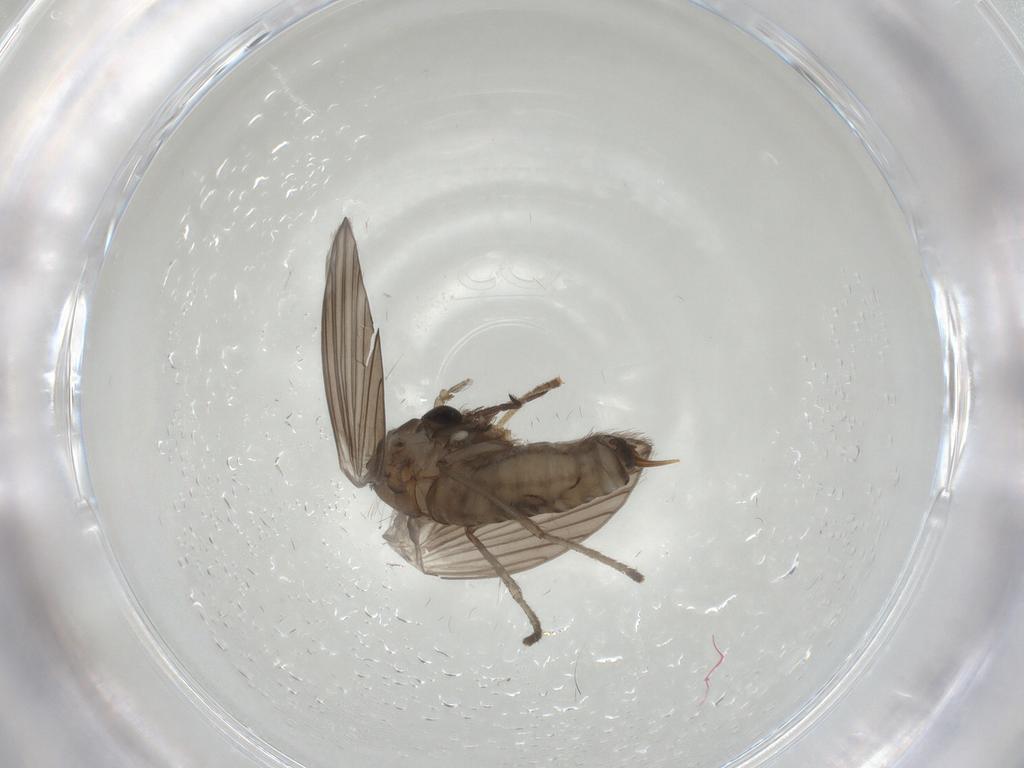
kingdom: Animalia
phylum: Arthropoda
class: Insecta
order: Diptera
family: Psychodidae
